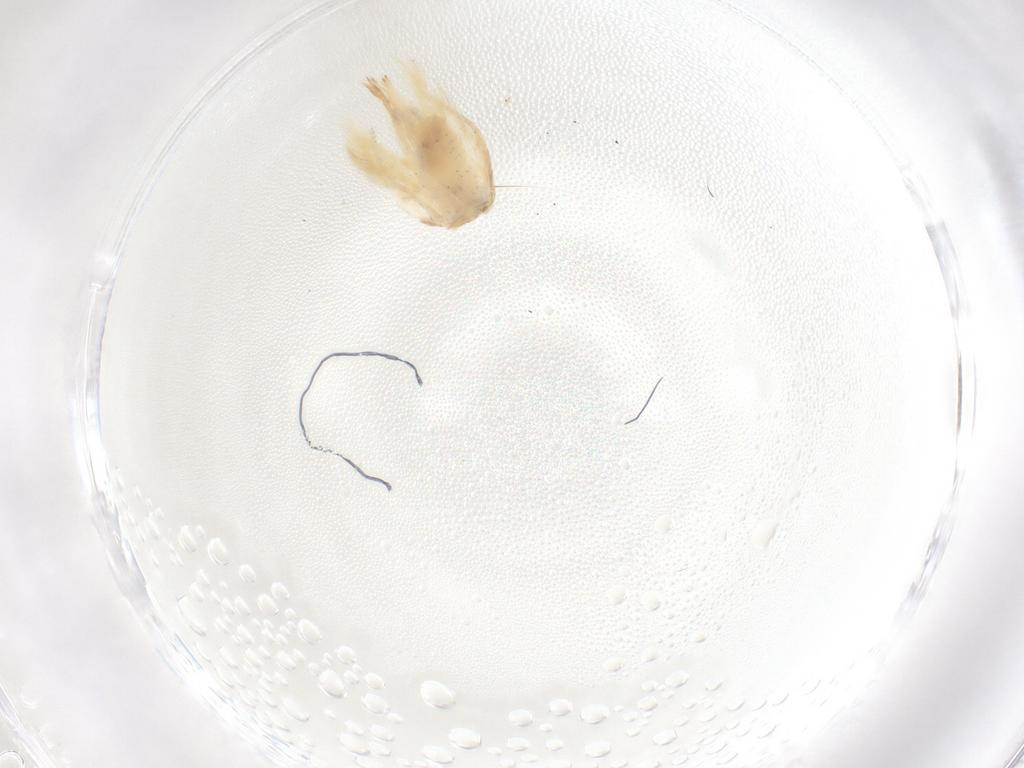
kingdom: Animalia
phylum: Arthropoda
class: Insecta
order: Lepidoptera
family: Nepticulidae
